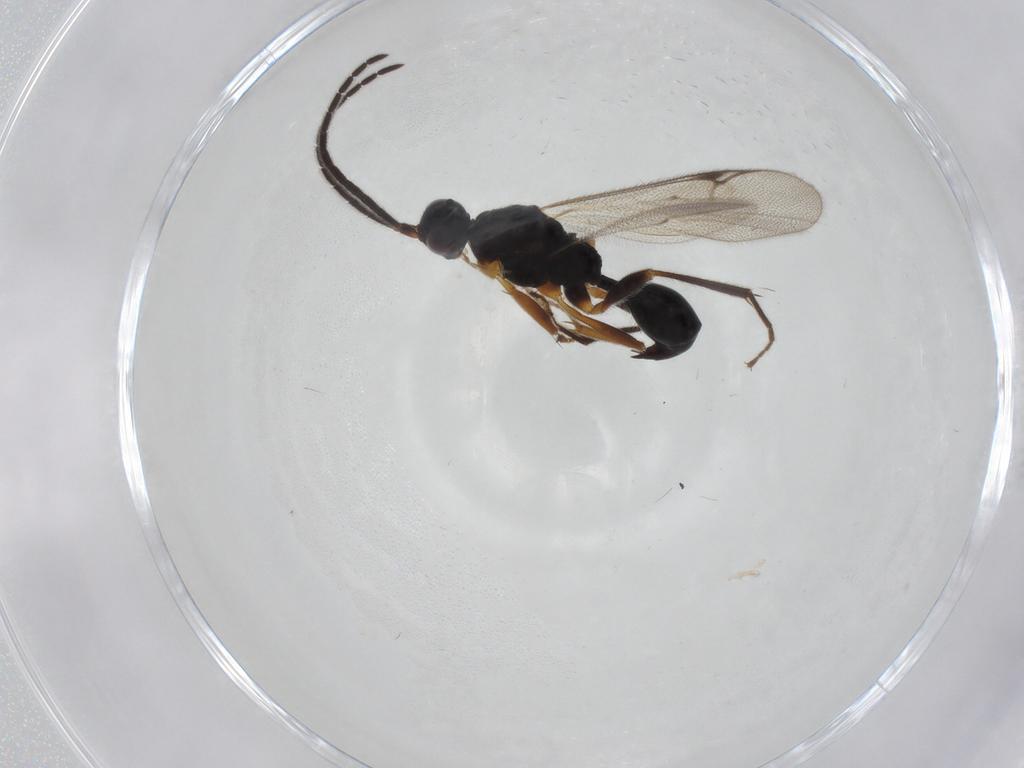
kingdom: Animalia
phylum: Arthropoda
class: Insecta
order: Hymenoptera
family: Proctotrupidae
